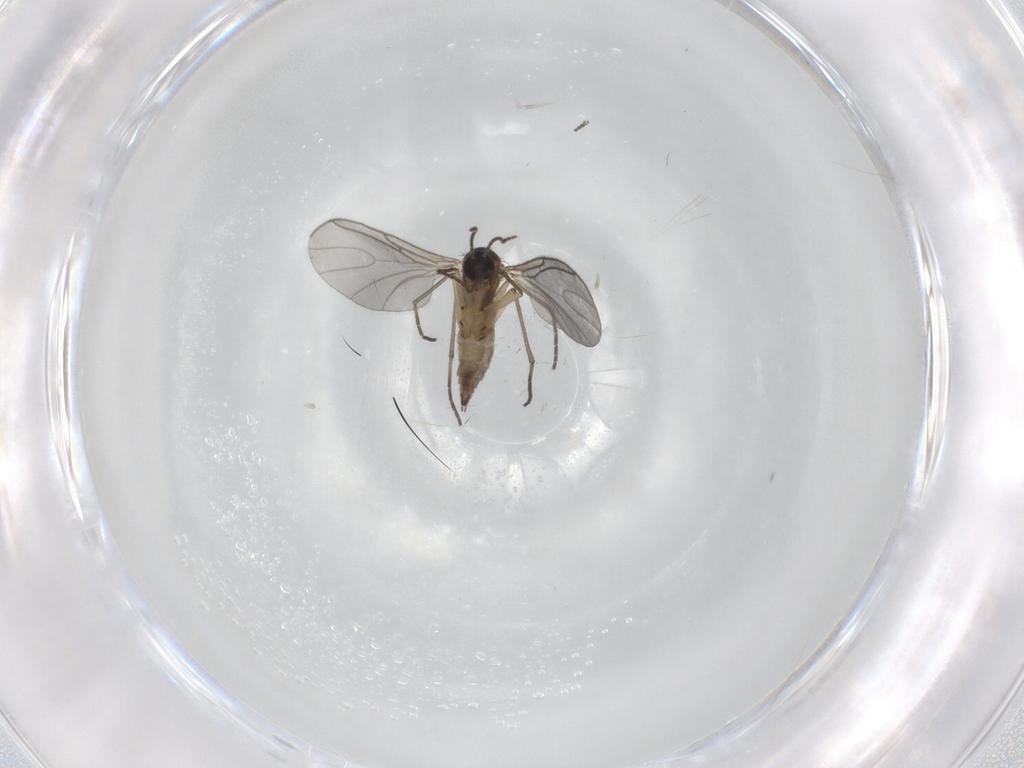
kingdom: Animalia
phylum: Arthropoda
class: Insecta
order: Diptera
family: Sciaridae
